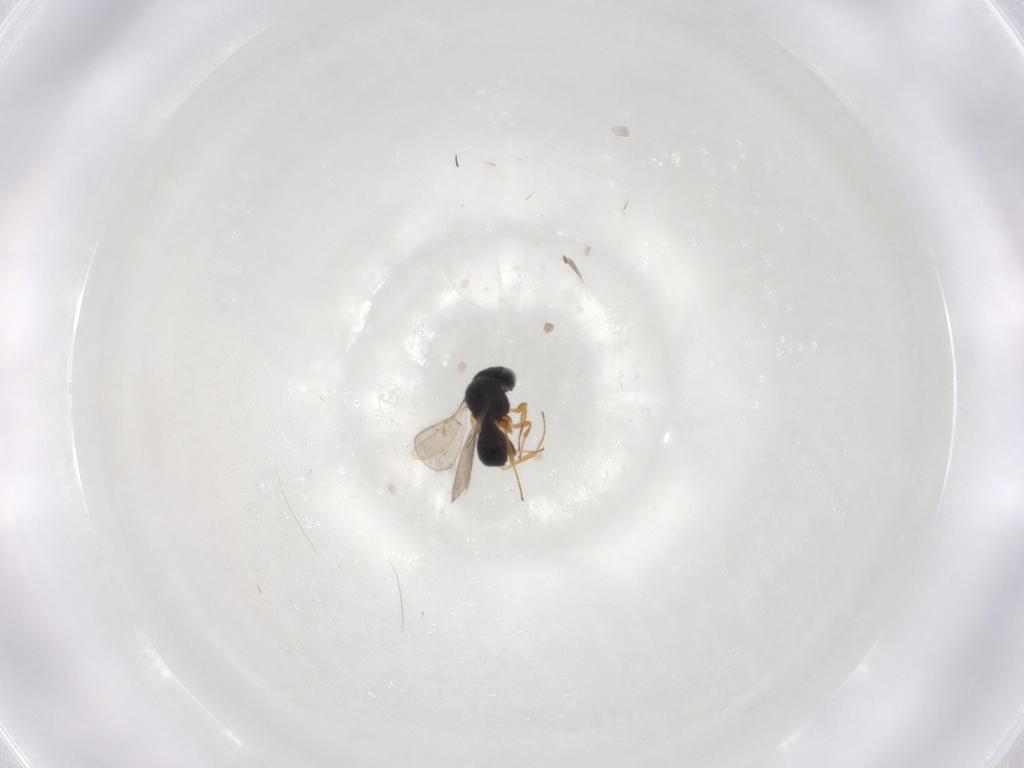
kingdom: Animalia
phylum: Arthropoda
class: Insecta
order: Hymenoptera
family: Scelionidae
